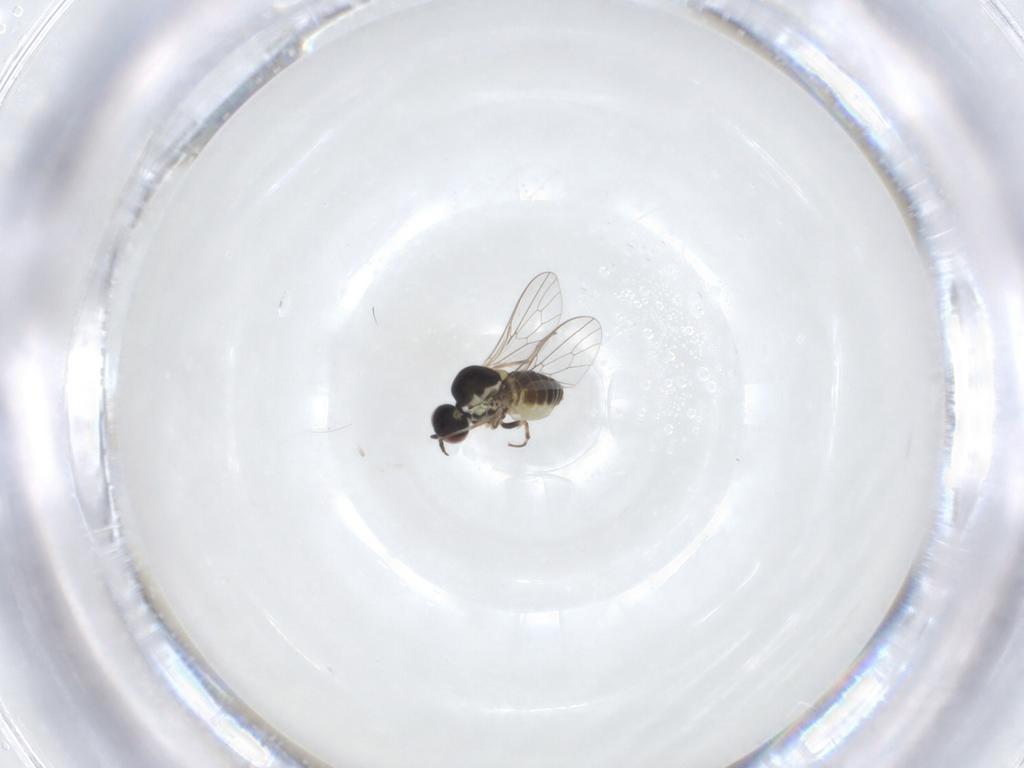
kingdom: Animalia
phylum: Arthropoda
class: Insecta
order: Diptera
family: Mythicomyiidae
